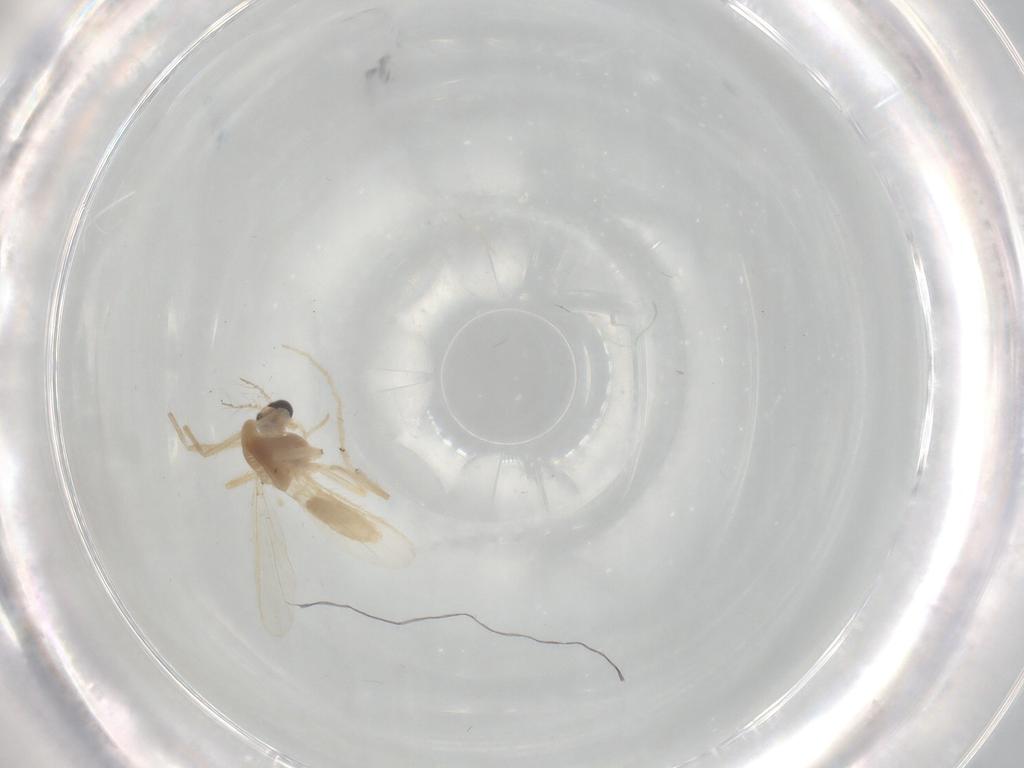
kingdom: Animalia
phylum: Arthropoda
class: Insecta
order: Diptera
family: Chironomidae
